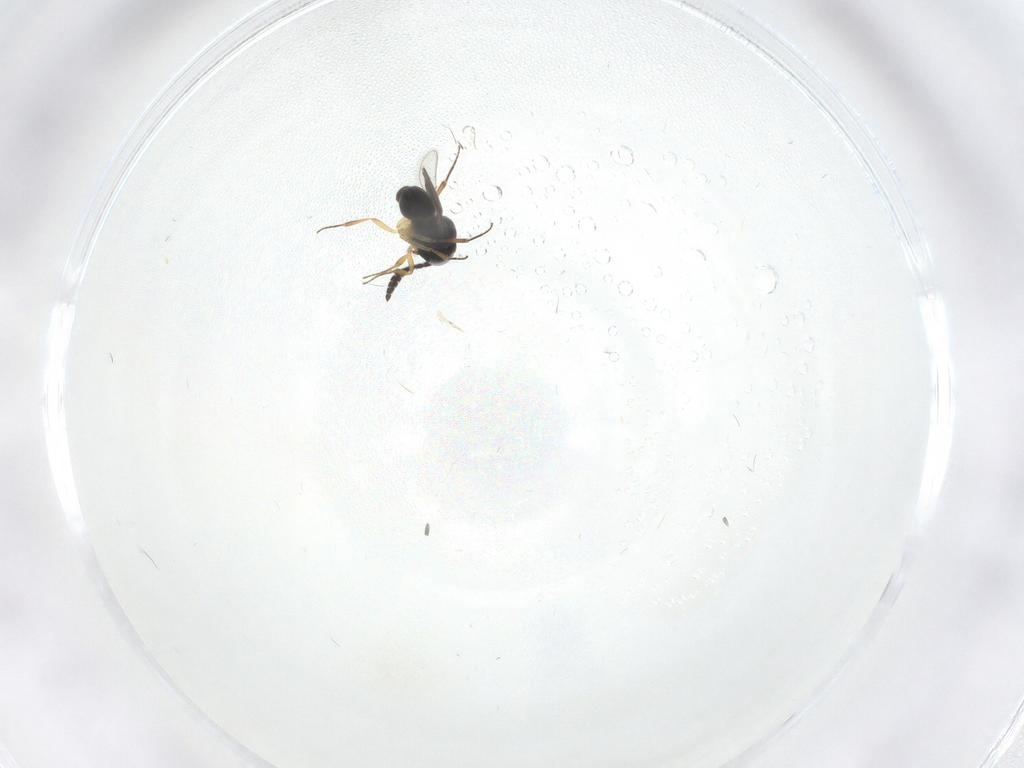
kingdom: Animalia
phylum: Arthropoda
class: Insecta
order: Hymenoptera
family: Scelionidae
